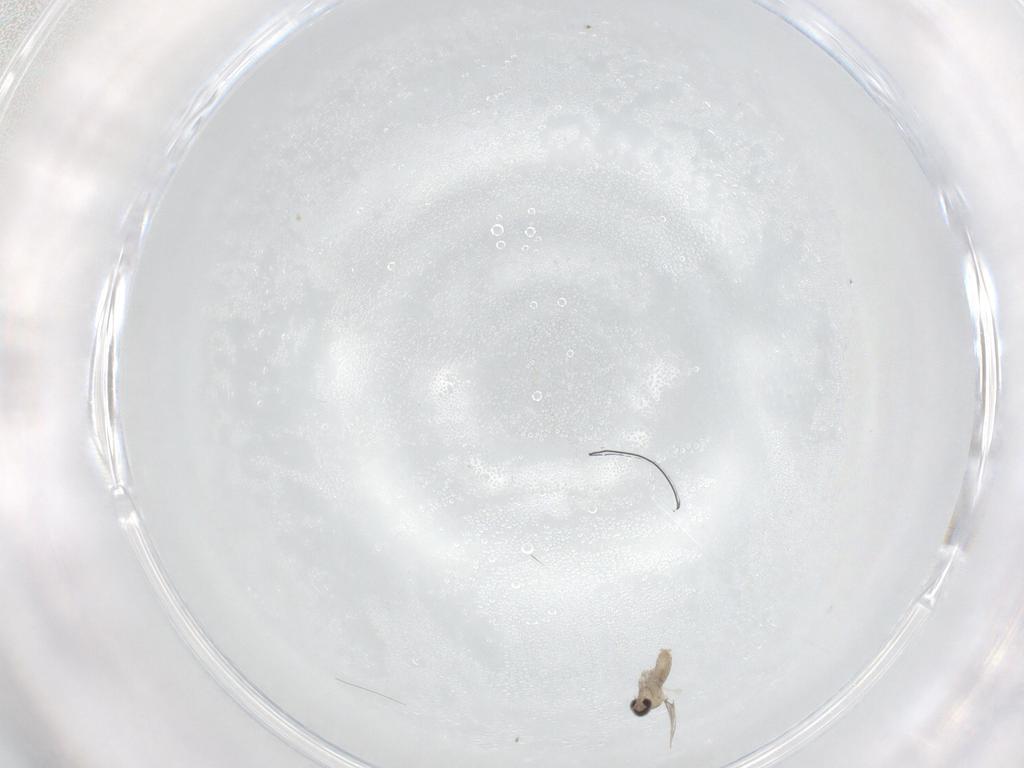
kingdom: Animalia
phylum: Arthropoda
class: Insecta
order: Diptera
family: Cecidomyiidae
